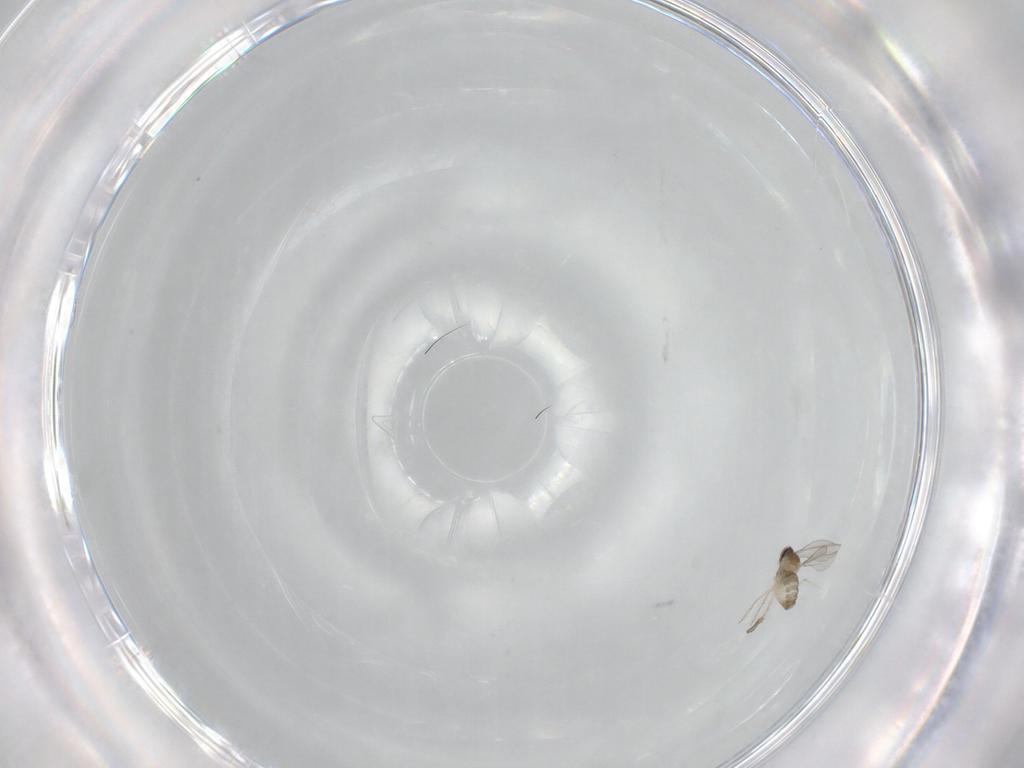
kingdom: Animalia
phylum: Arthropoda
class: Insecta
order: Diptera
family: Cecidomyiidae
